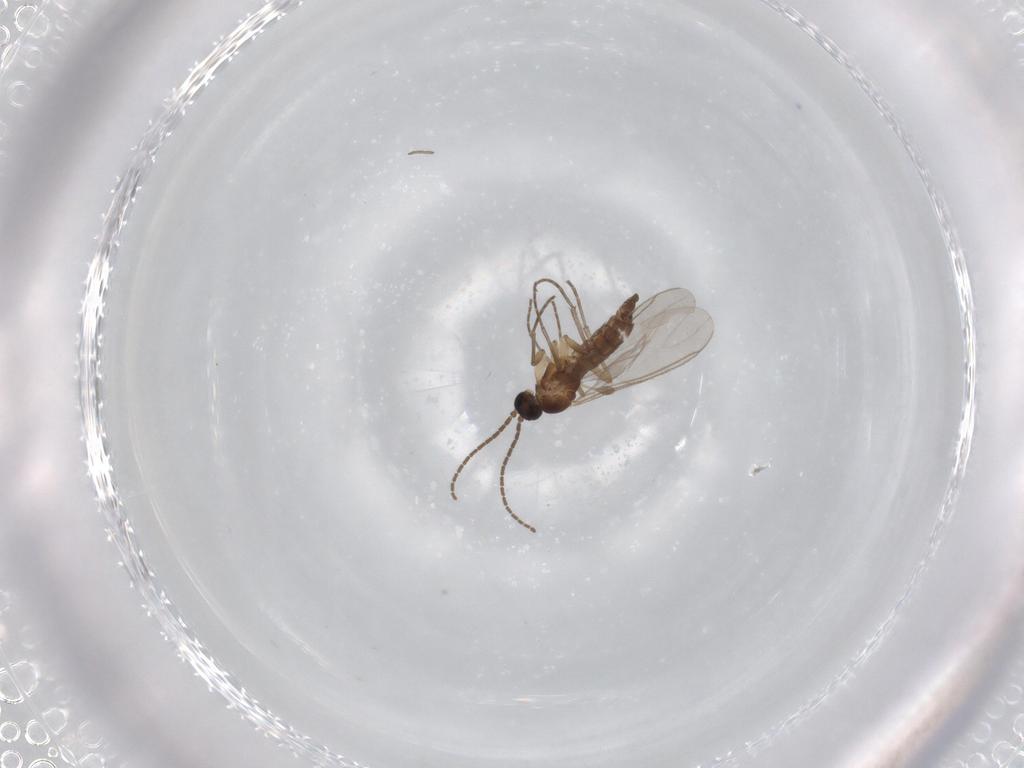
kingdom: Animalia
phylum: Arthropoda
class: Insecta
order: Diptera
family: Sciaridae
